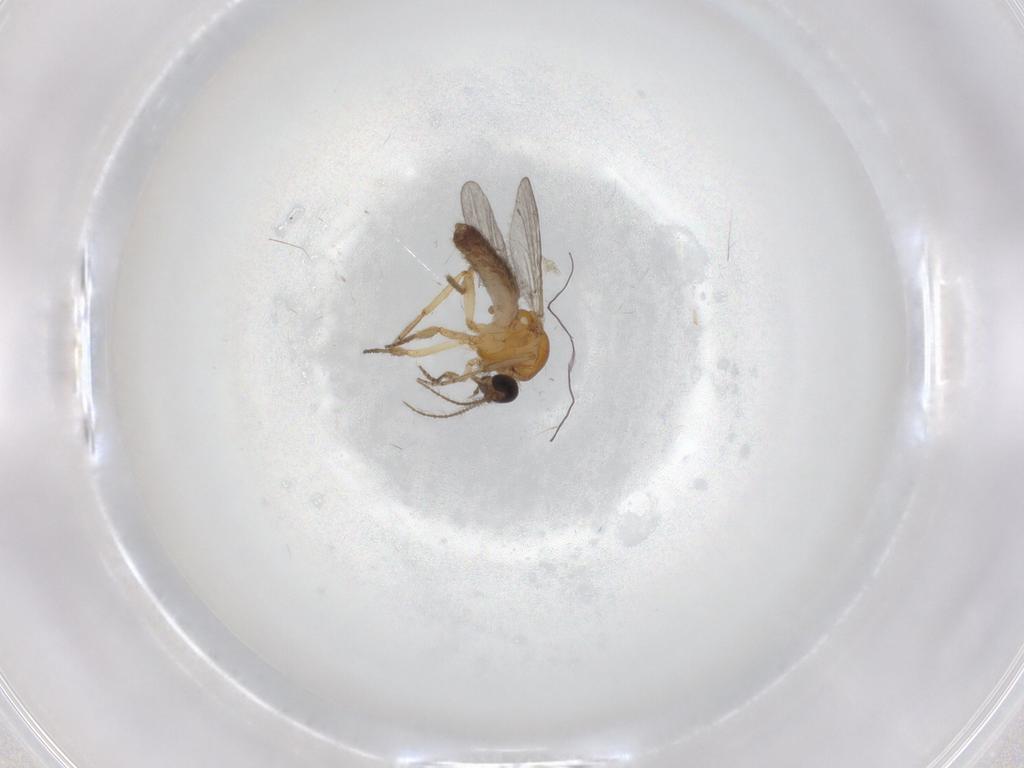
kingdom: Animalia
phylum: Arthropoda
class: Insecta
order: Diptera
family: Ceratopogonidae
